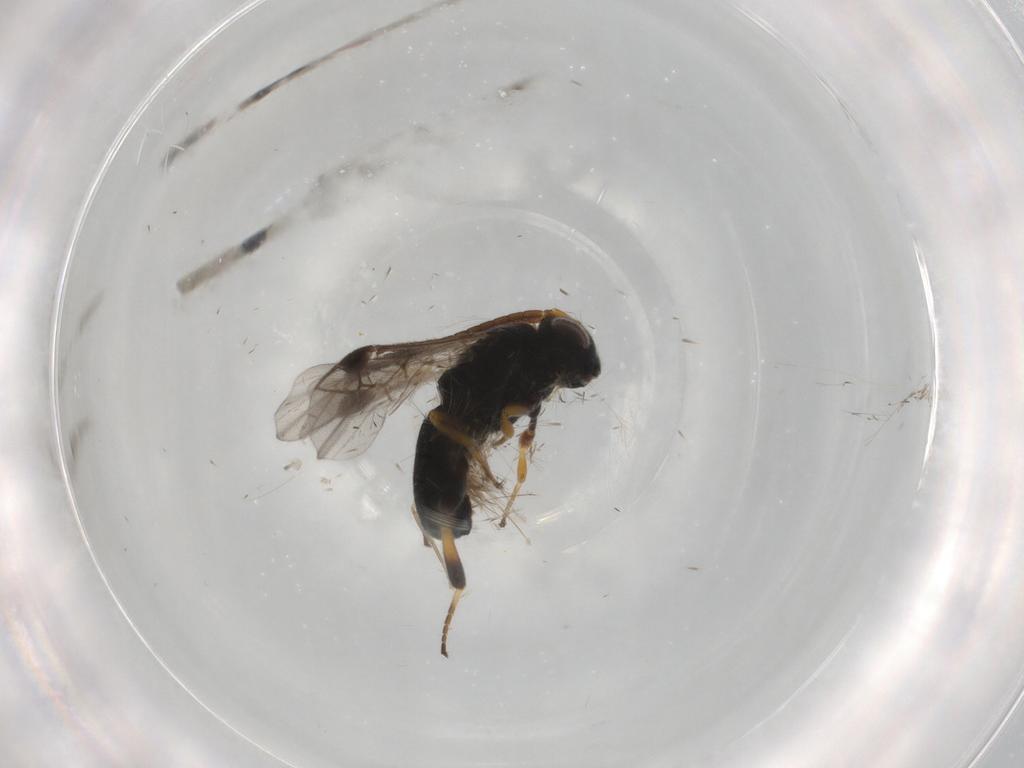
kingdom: Animalia
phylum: Arthropoda
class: Insecta
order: Hymenoptera
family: Braconidae
